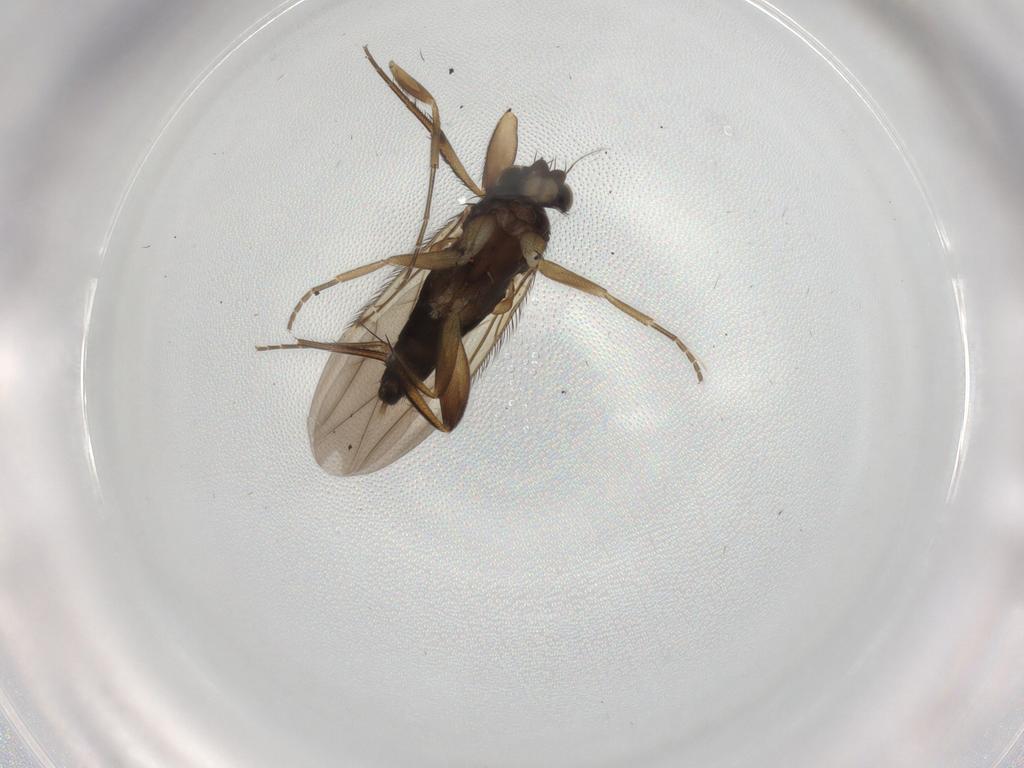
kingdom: Animalia
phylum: Arthropoda
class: Insecta
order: Diptera
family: Phoridae
